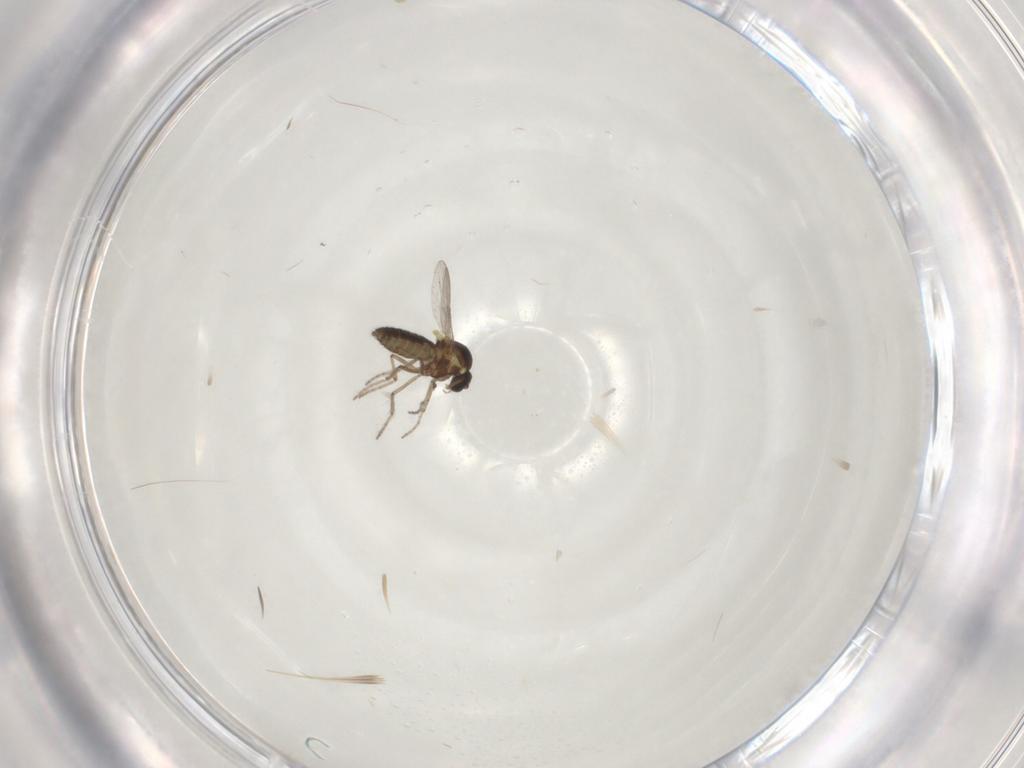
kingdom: Animalia
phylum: Arthropoda
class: Insecta
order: Diptera
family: Ceratopogonidae
